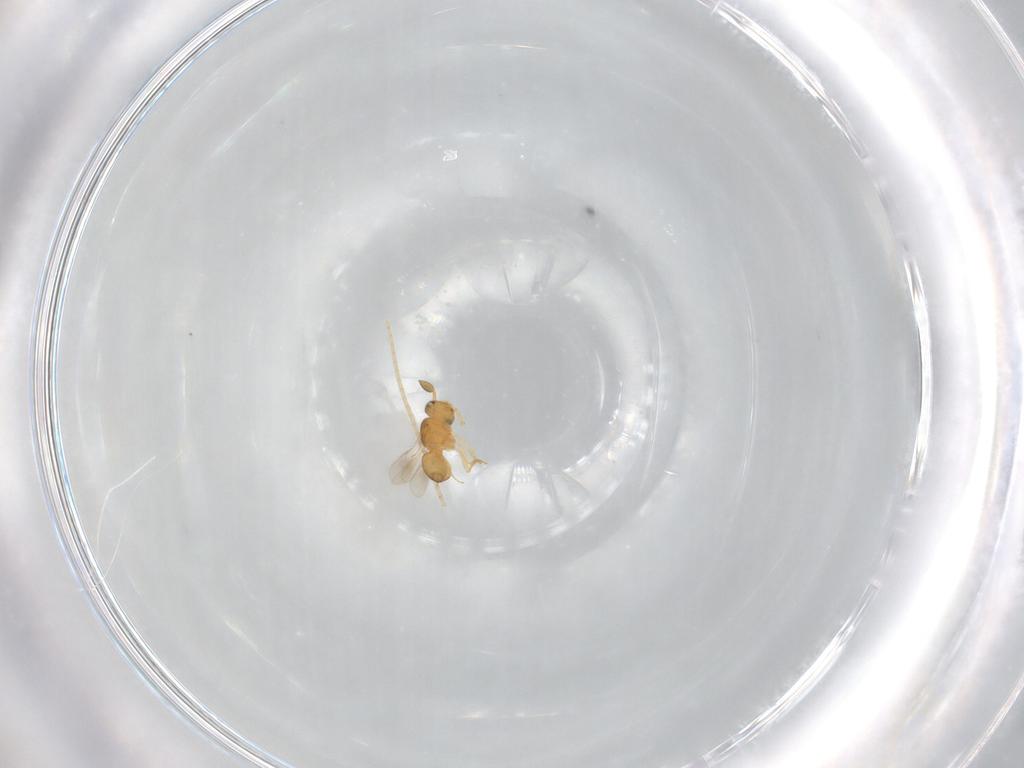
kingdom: Animalia
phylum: Arthropoda
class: Insecta
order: Hymenoptera
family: Scelionidae
